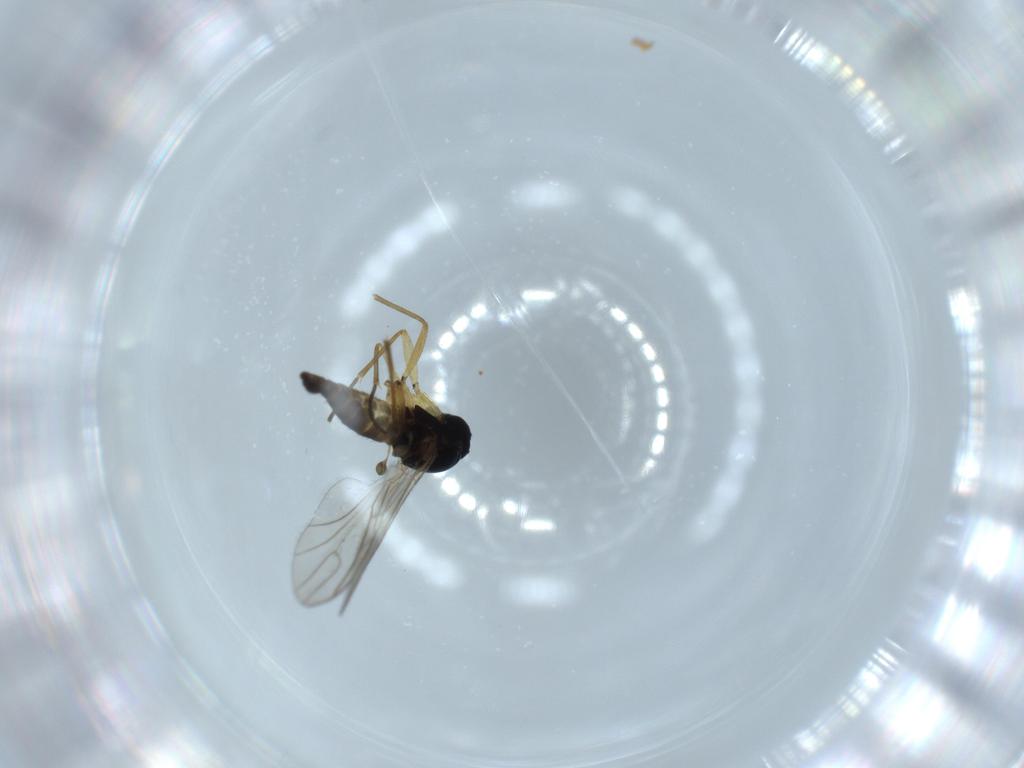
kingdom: Animalia
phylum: Arthropoda
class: Insecta
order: Diptera
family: Sciaridae
